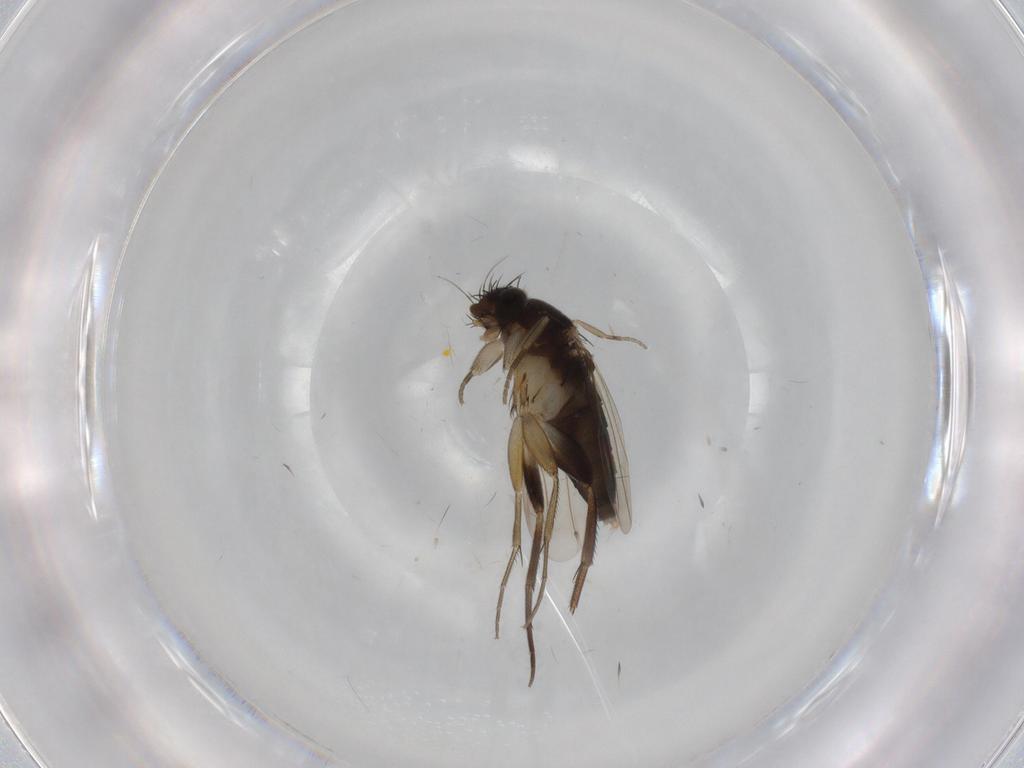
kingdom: Animalia
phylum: Arthropoda
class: Insecta
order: Diptera
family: Phoridae
